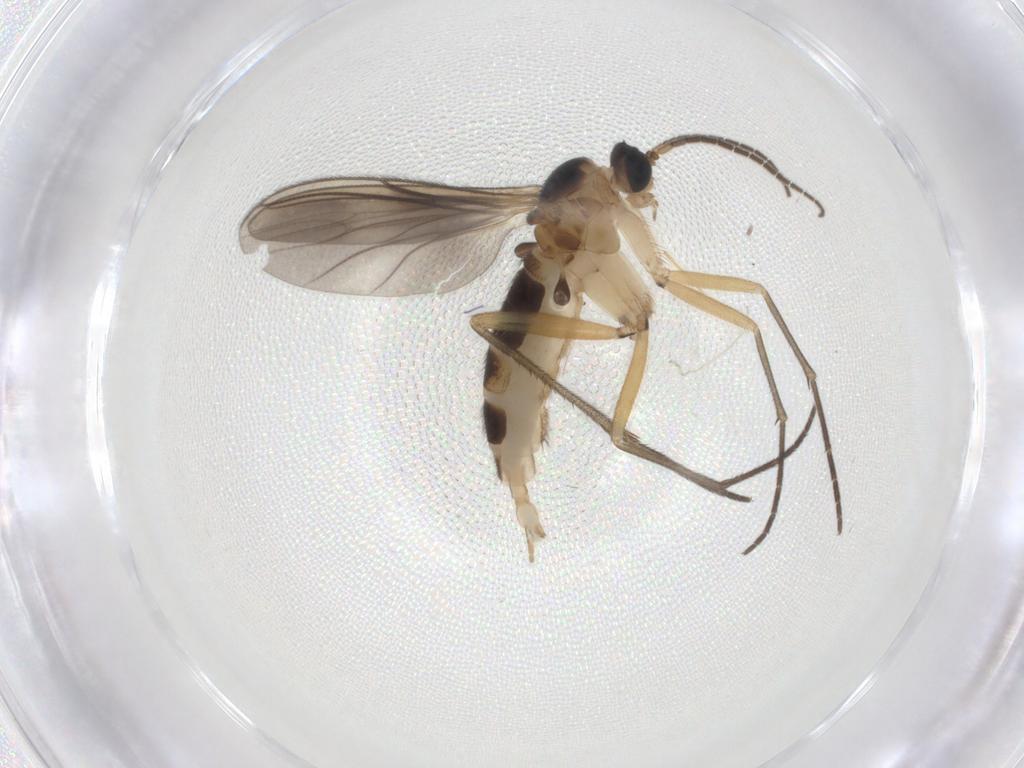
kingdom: Animalia
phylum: Arthropoda
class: Insecta
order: Diptera
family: Sciaridae
